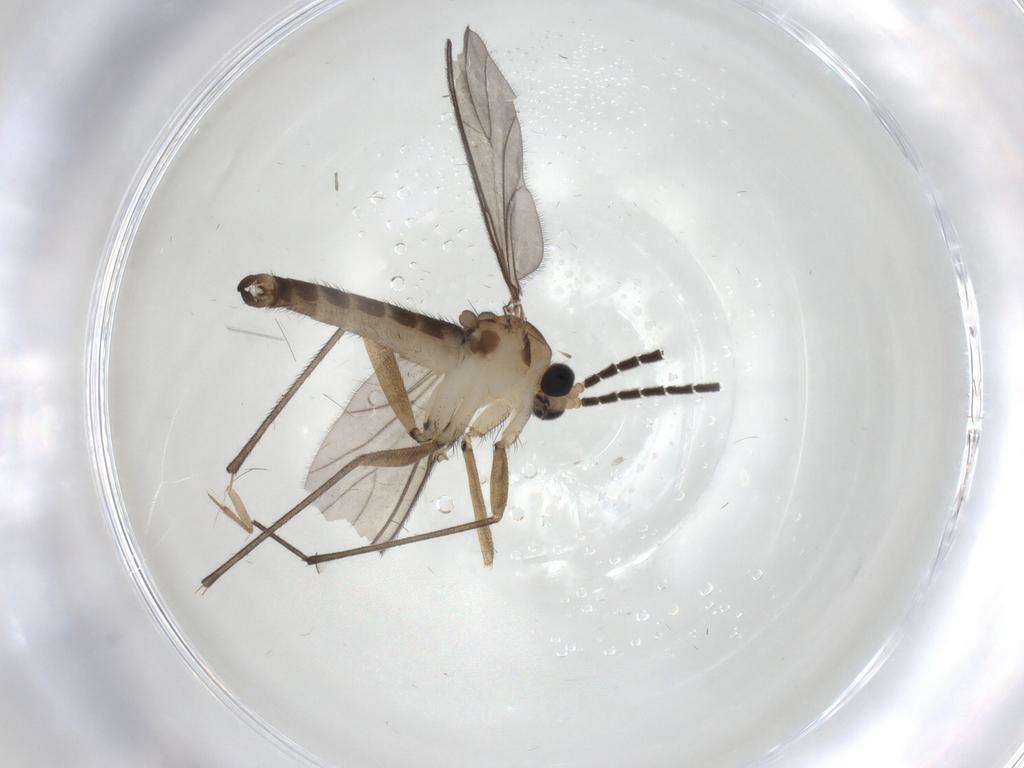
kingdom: Animalia
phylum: Arthropoda
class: Insecta
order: Diptera
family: Sciaridae
